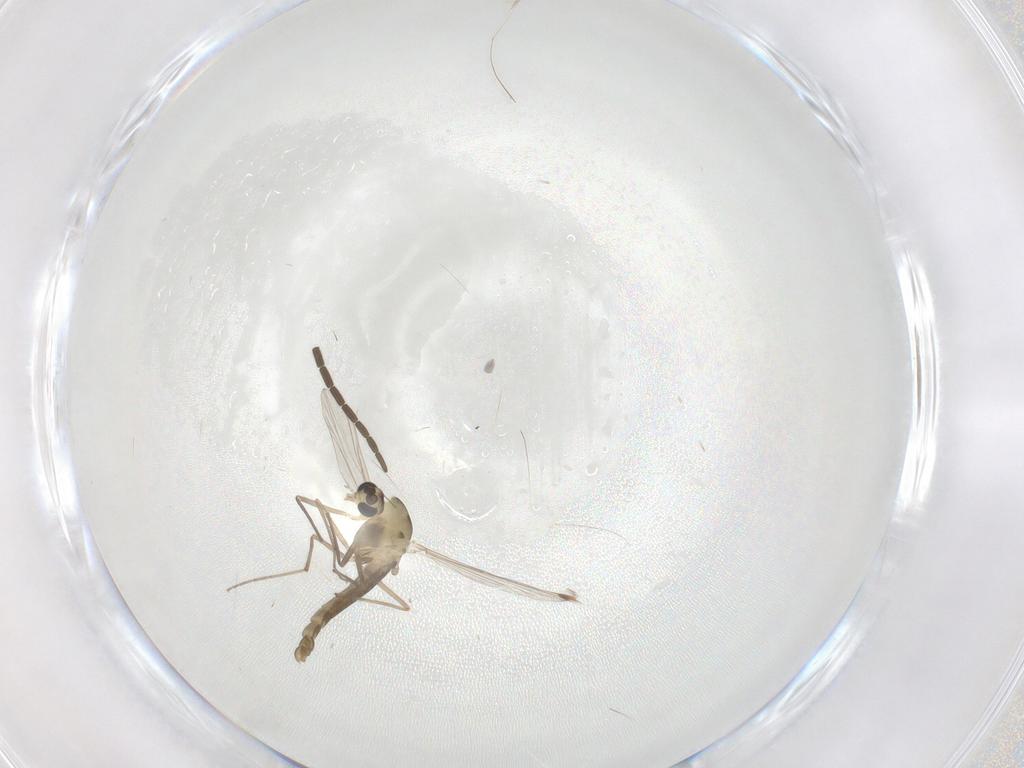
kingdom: Animalia
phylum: Arthropoda
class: Insecta
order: Diptera
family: Chironomidae
